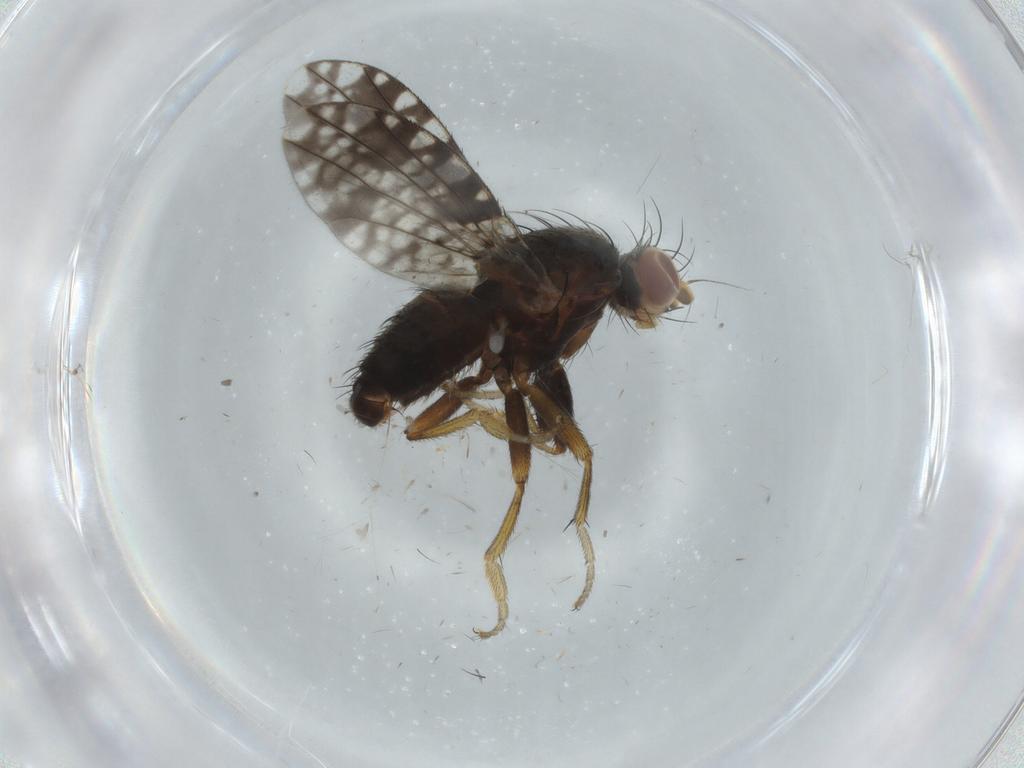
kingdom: Animalia
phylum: Arthropoda
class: Insecta
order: Diptera
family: Tephritidae
